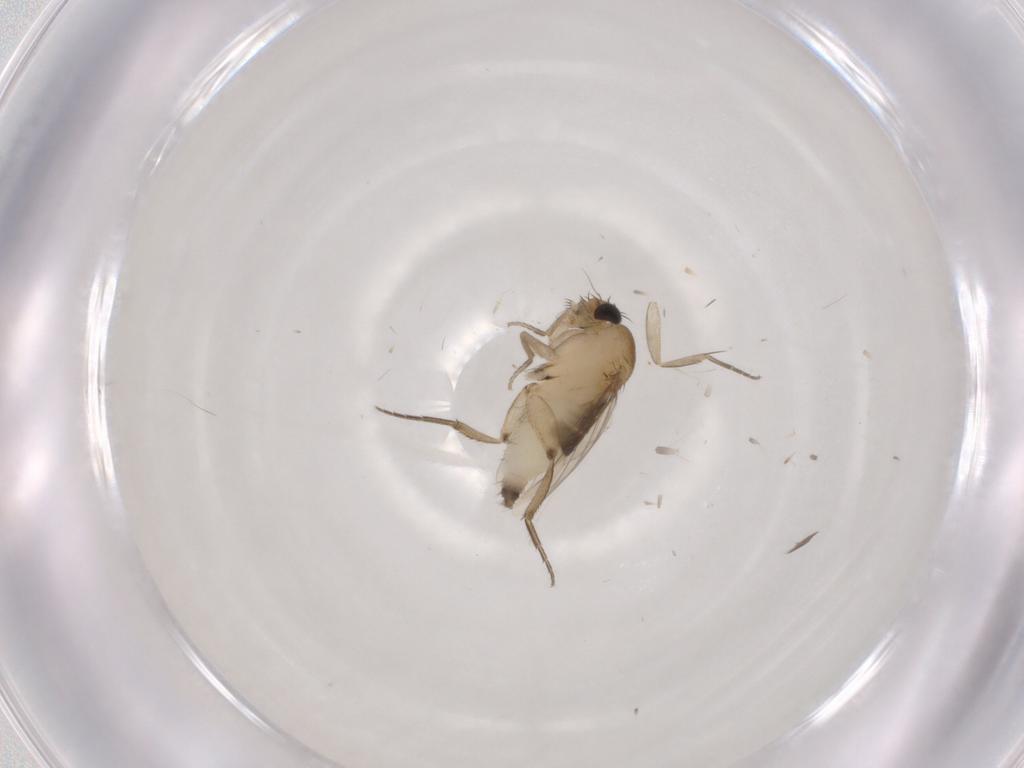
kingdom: Animalia
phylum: Arthropoda
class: Insecta
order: Diptera
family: Phoridae
